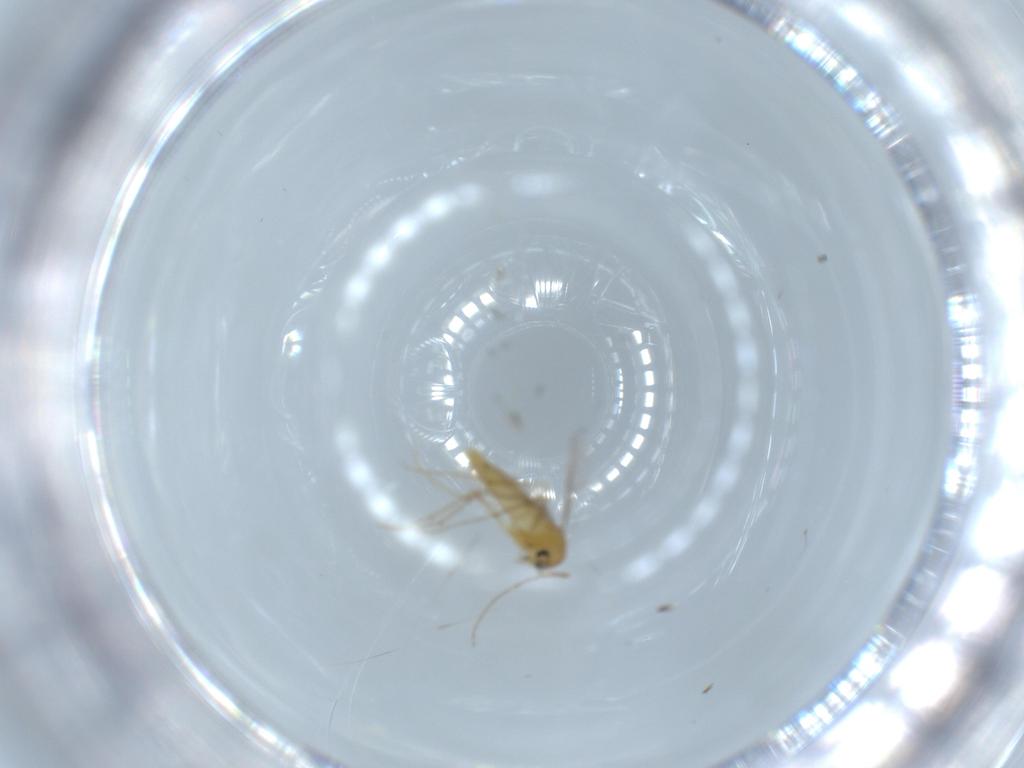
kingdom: Animalia
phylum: Arthropoda
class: Insecta
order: Diptera
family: Chironomidae
